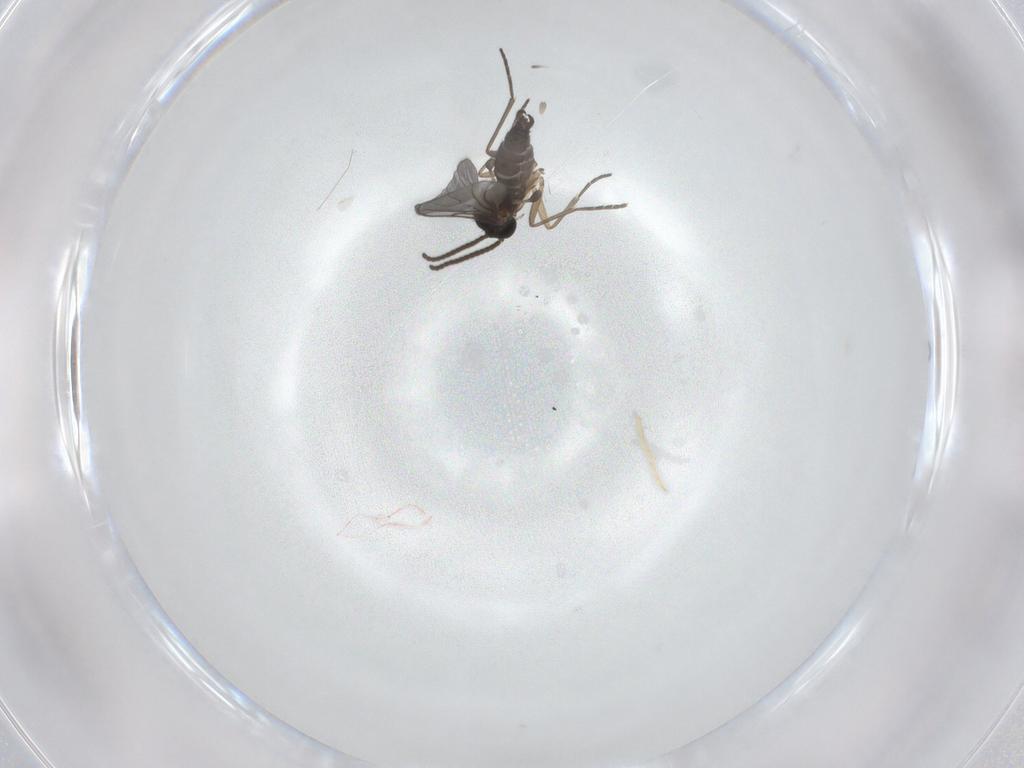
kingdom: Animalia
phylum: Arthropoda
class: Insecta
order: Diptera
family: Sciaridae
